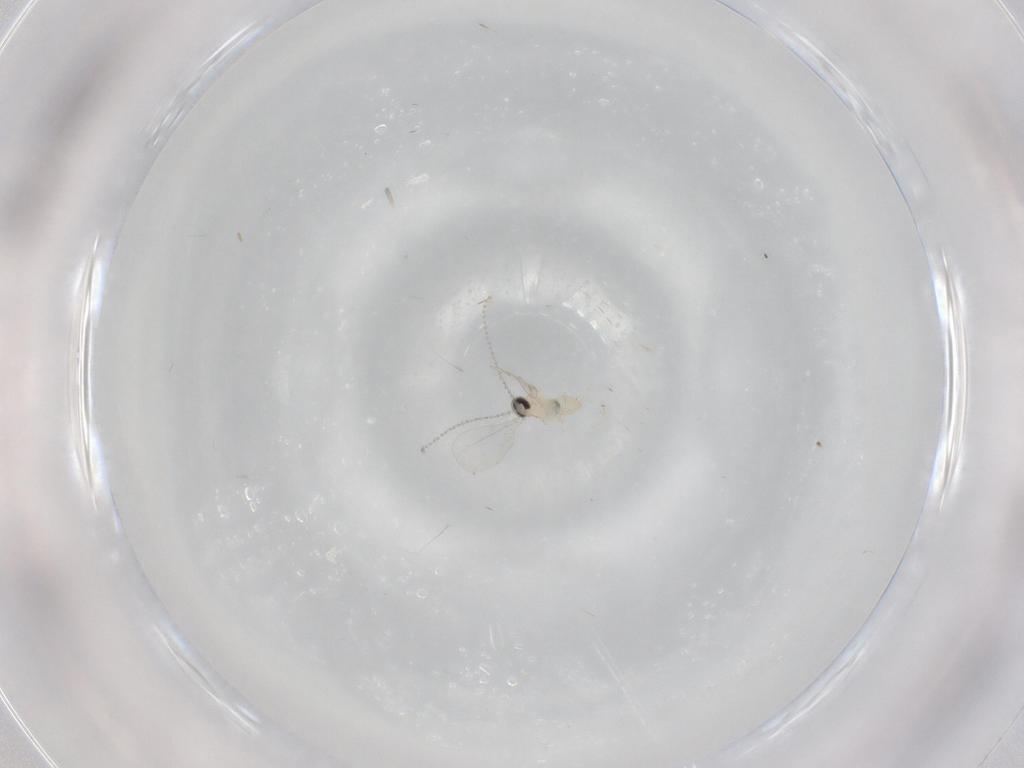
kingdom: Animalia
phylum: Arthropoda
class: Insecta
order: Diptera
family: Cecidomyiidae
